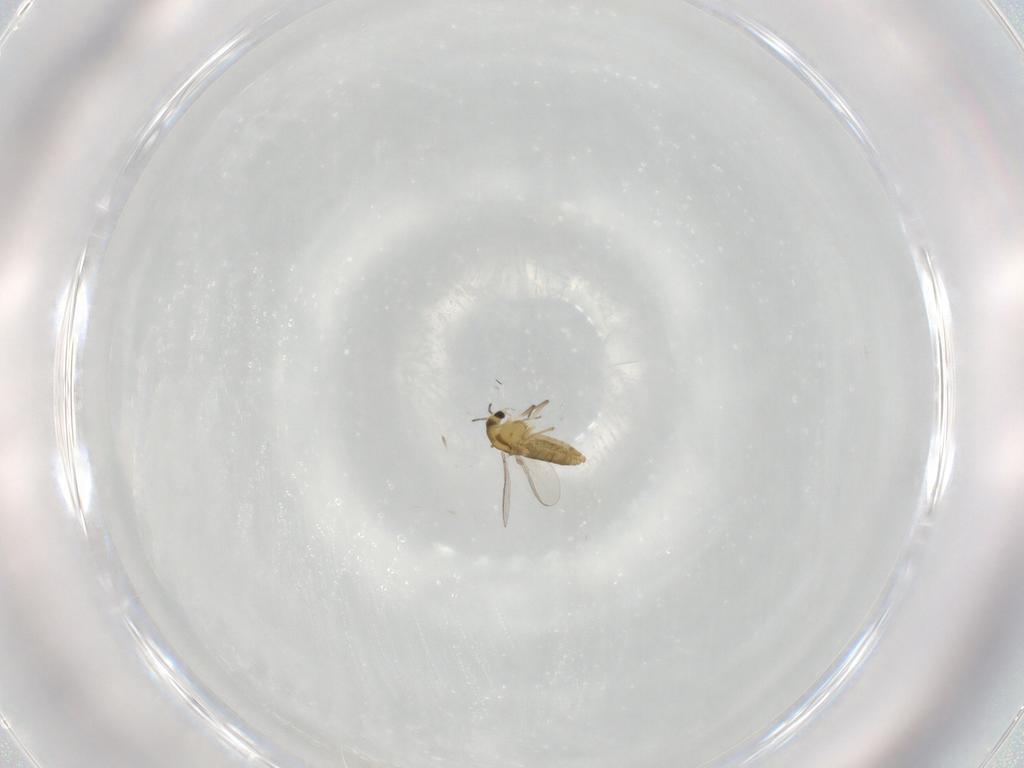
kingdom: Animalia
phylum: Arthropoda
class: Insecta
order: Diptera
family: Chironomidae
